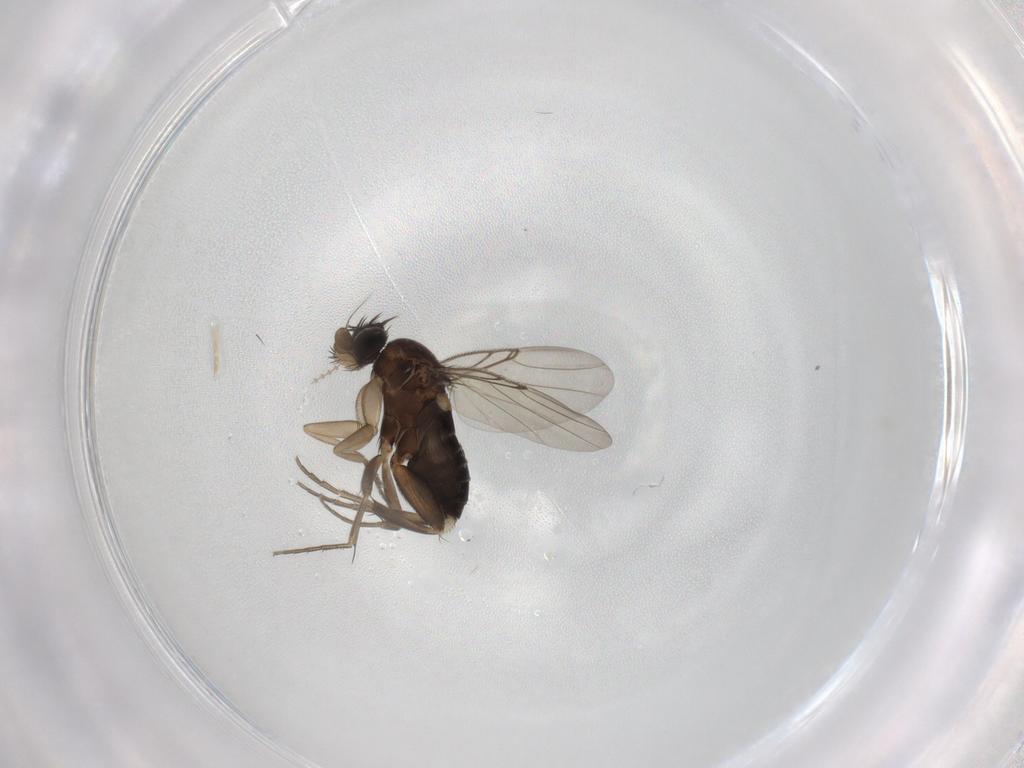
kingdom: Animalia
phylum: Arthropoda
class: Insecta
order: Diptera
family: Phoridae
